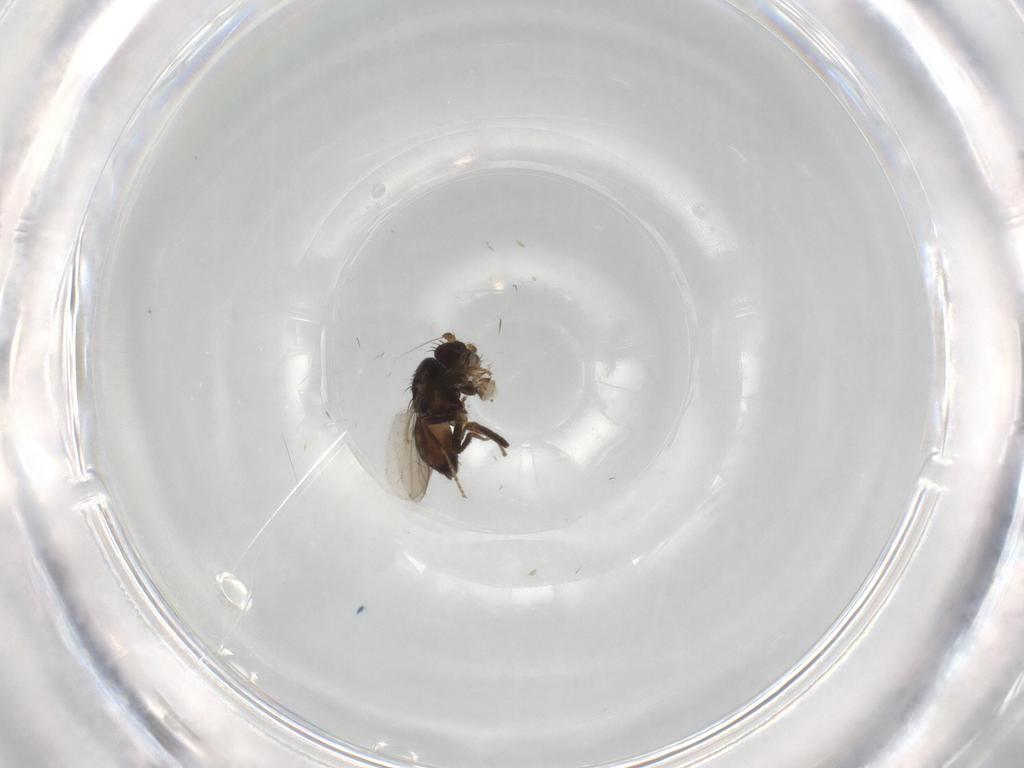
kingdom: Animalia
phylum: Arthropoda
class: Insecta
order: Diptera
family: Sphaeroceridae
